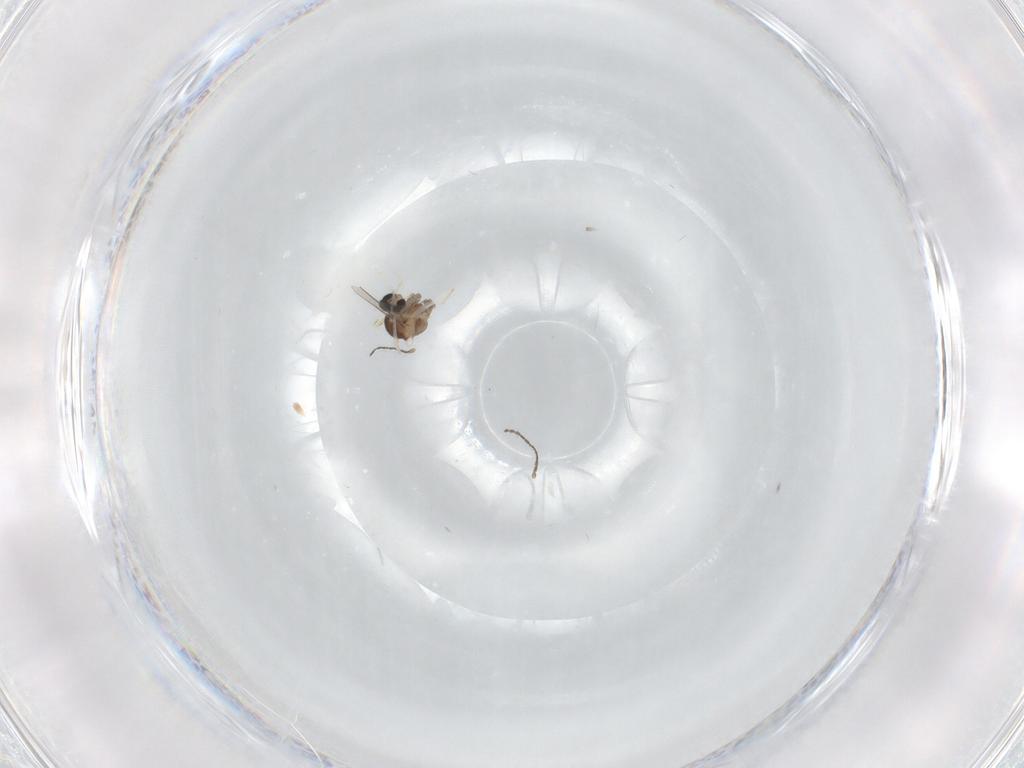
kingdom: Animalia
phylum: Arthropoda
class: Insecta
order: Diptera
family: Cecidomyiidae
